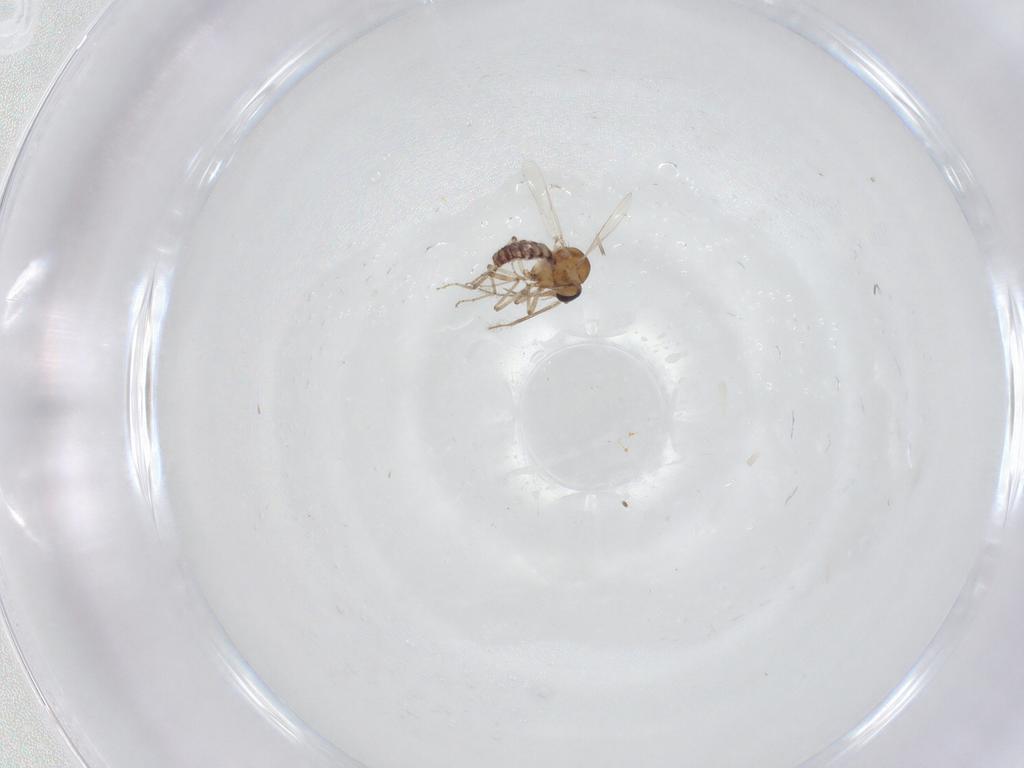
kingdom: Animalia
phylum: Arthropoda
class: Insecta
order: Diptera
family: Ceratopogonidae
